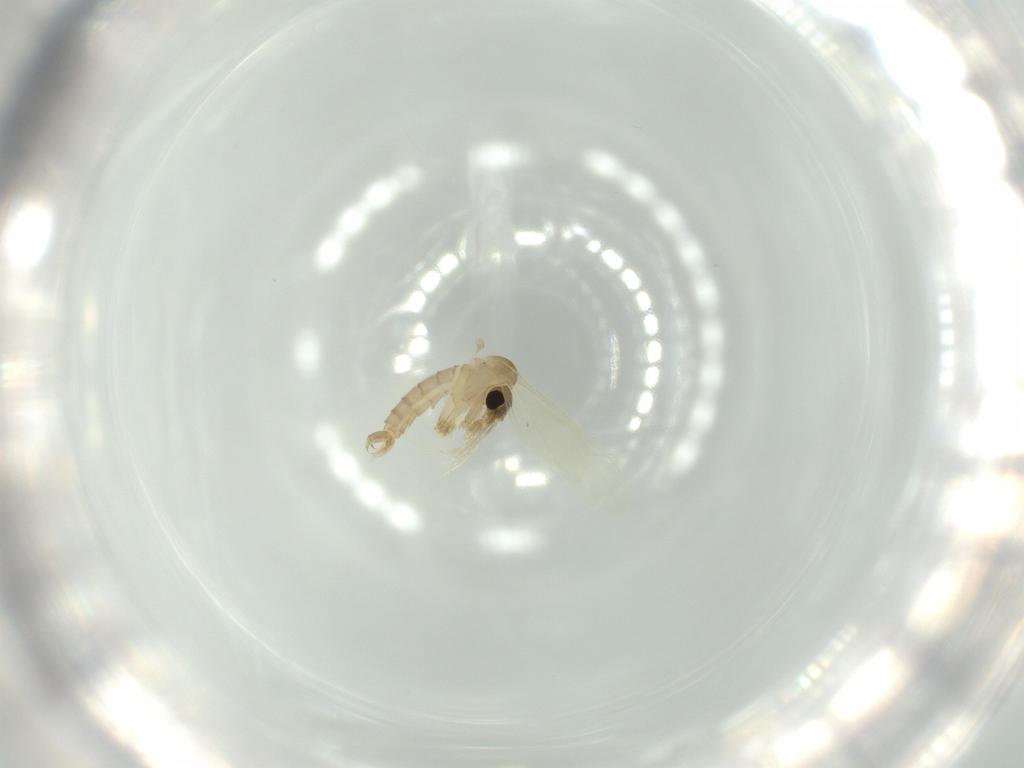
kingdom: Animalia
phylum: Arthropoda
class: Insecta
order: Diptera
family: Psychodidae
